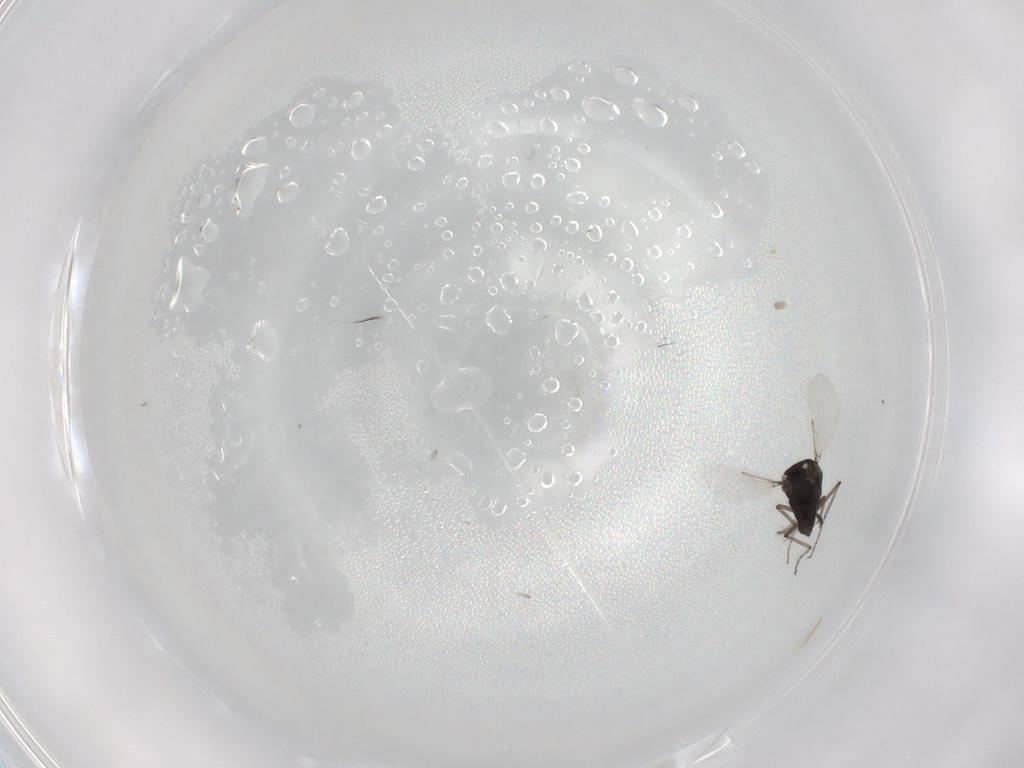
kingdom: Animalia
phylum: Arthropoda
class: Insecta
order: Diptera
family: Ceratopogonidae
